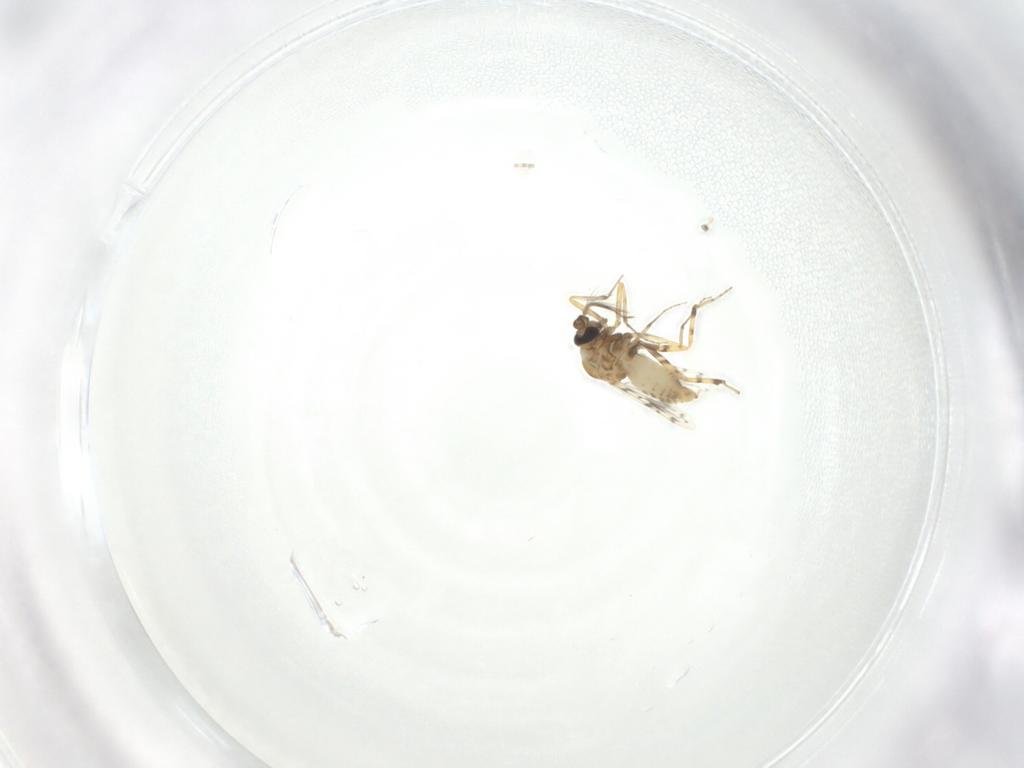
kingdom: Animalia
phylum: Arthropoda
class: Insecta
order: Diptera
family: Ceratopogonidae
